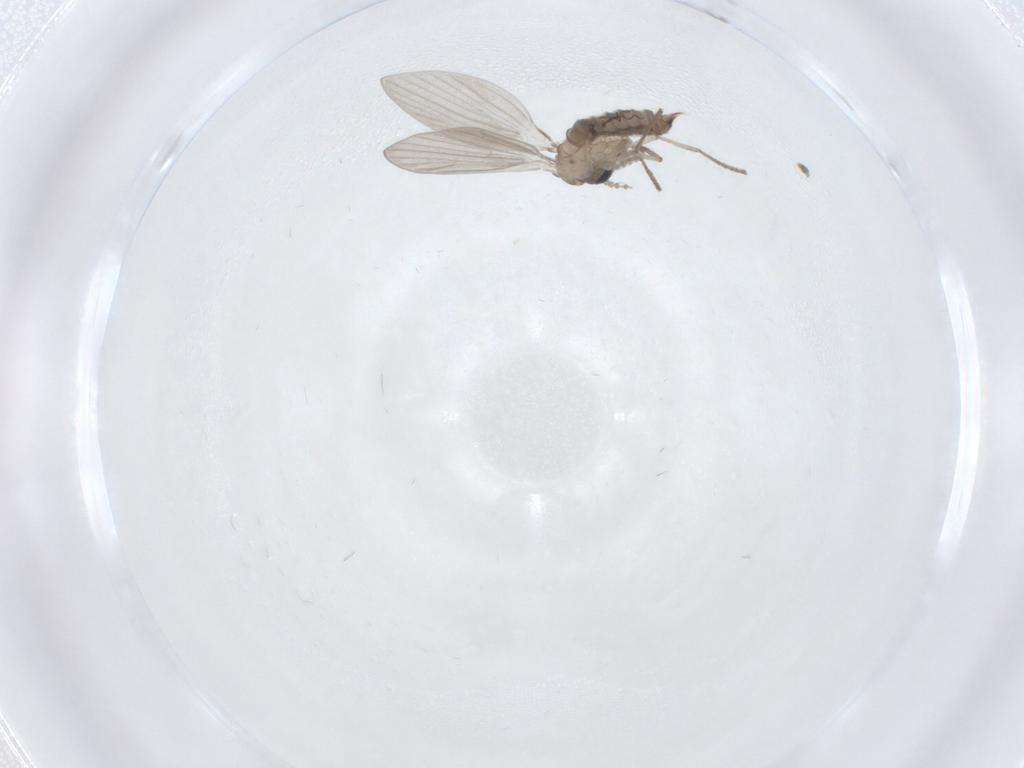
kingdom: Animalia
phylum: Arthropoda
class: Insecta
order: Diptera
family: Psychodidae
